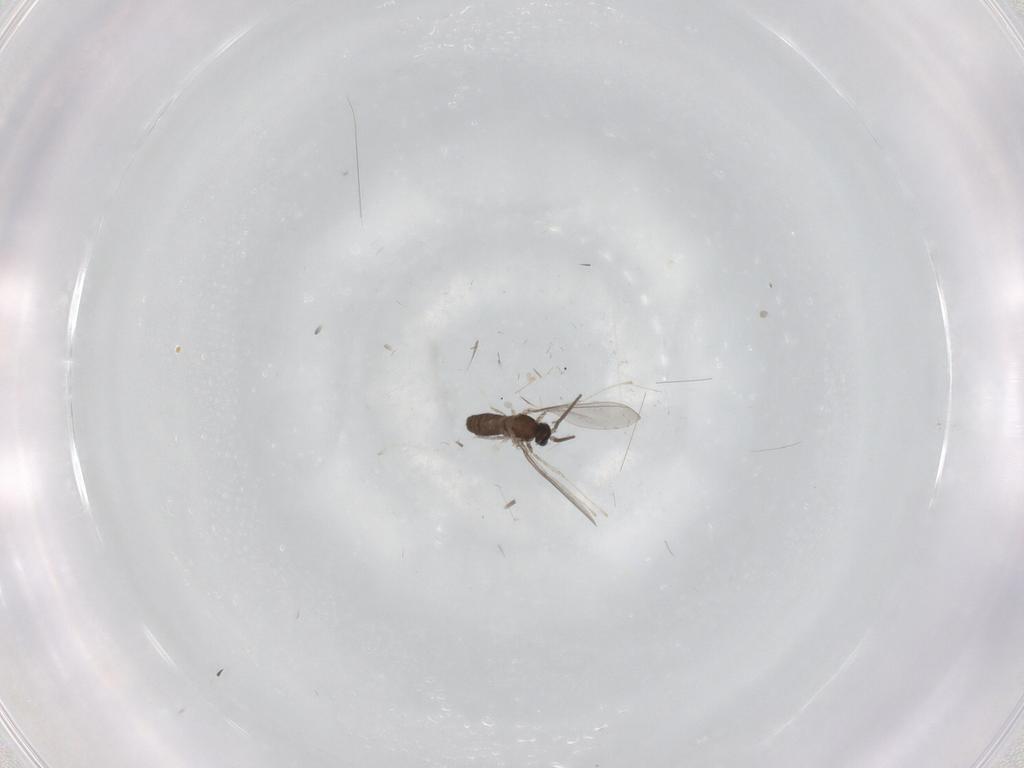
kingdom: Animalia
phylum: Arthropoda
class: Insecta
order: Diptera
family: Cecidomyiidae
